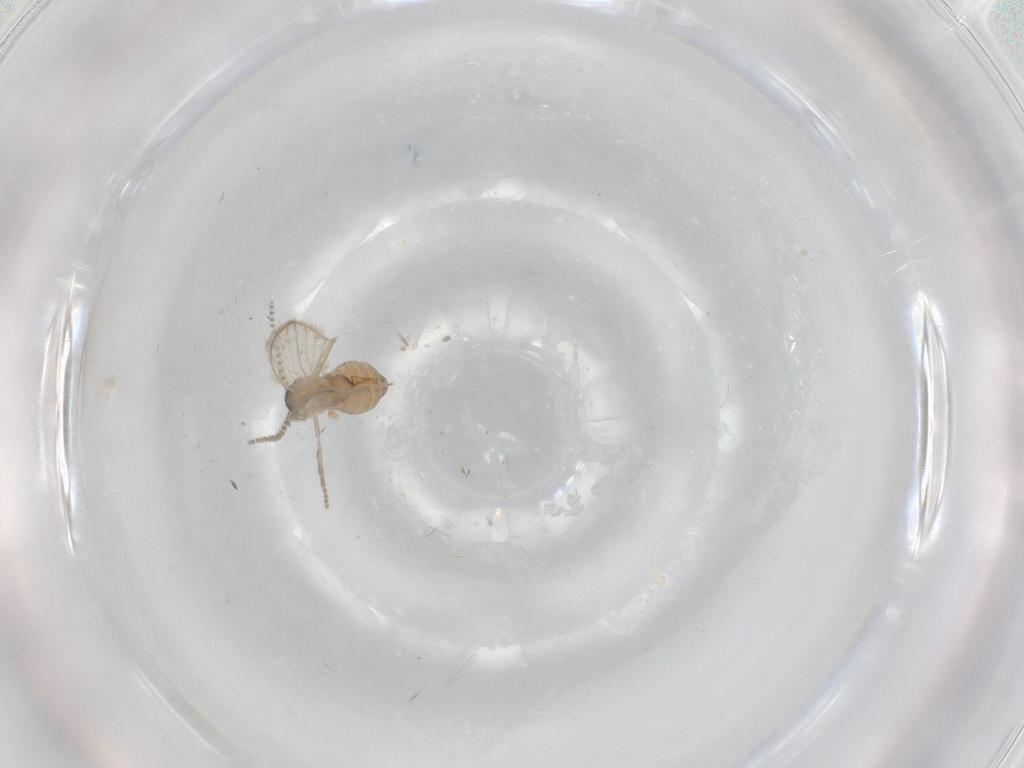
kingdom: Animalia
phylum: Arthropoda
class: Insecta
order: Diptera
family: Psychodidae
